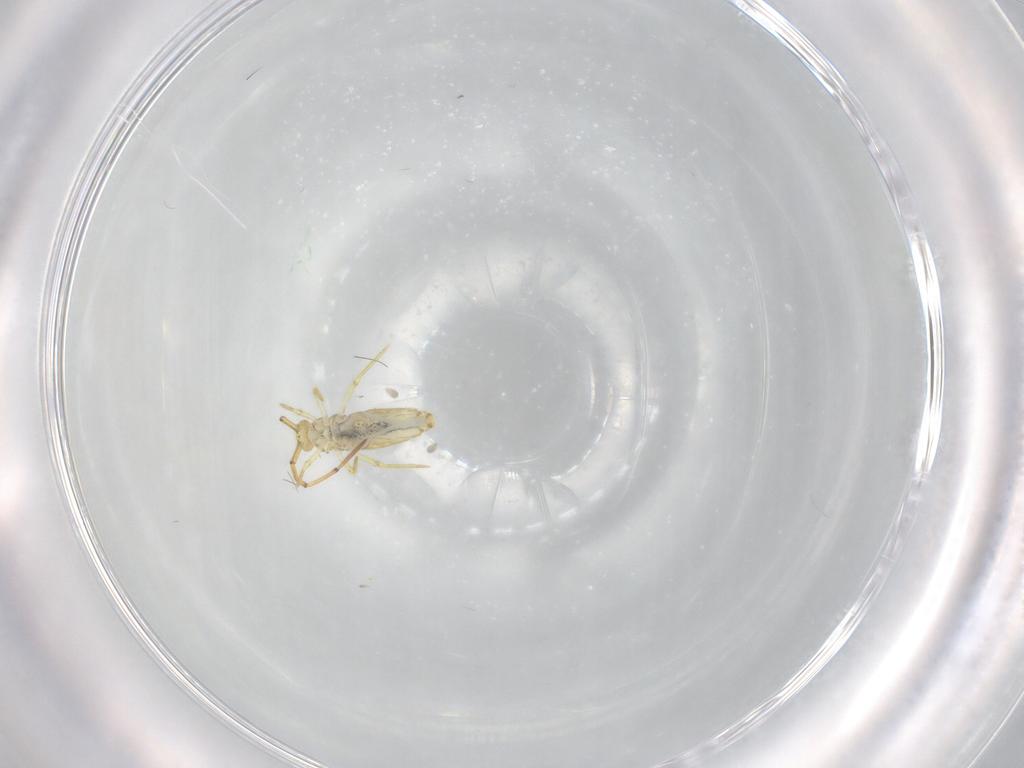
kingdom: Animalia
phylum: Arthropoda
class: Collembola
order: Entomobryomorpha
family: Paronellidae
